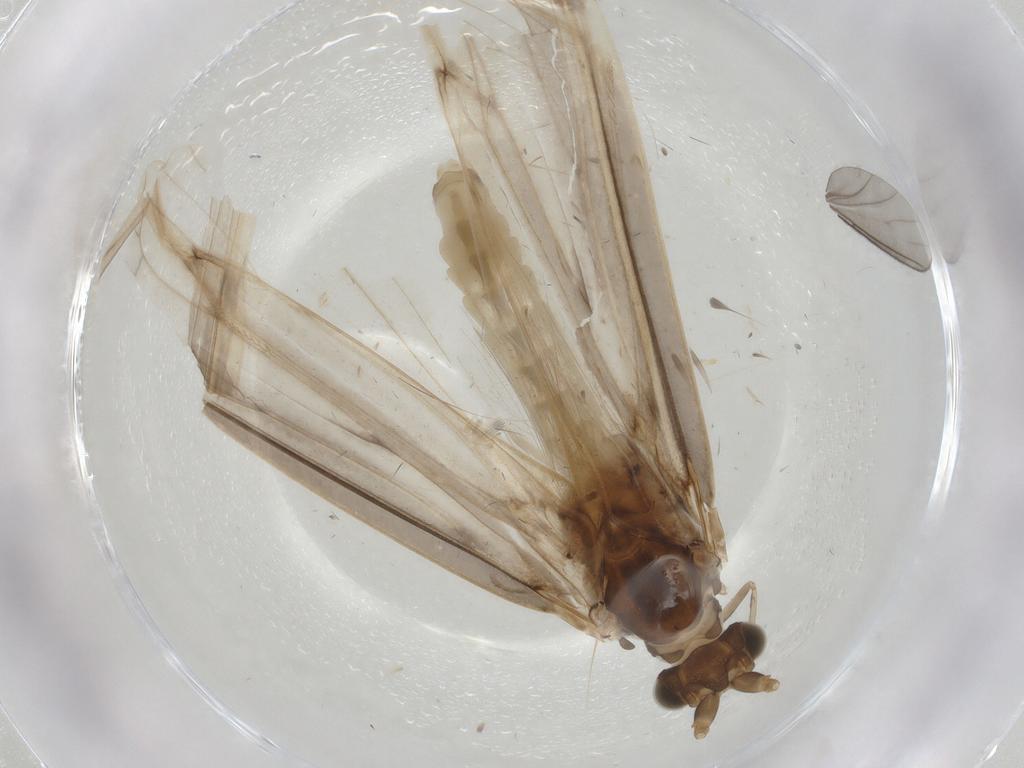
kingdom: Animalia
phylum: Arthropoda
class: Insecta
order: Trichoptera
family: Leptoceridae
